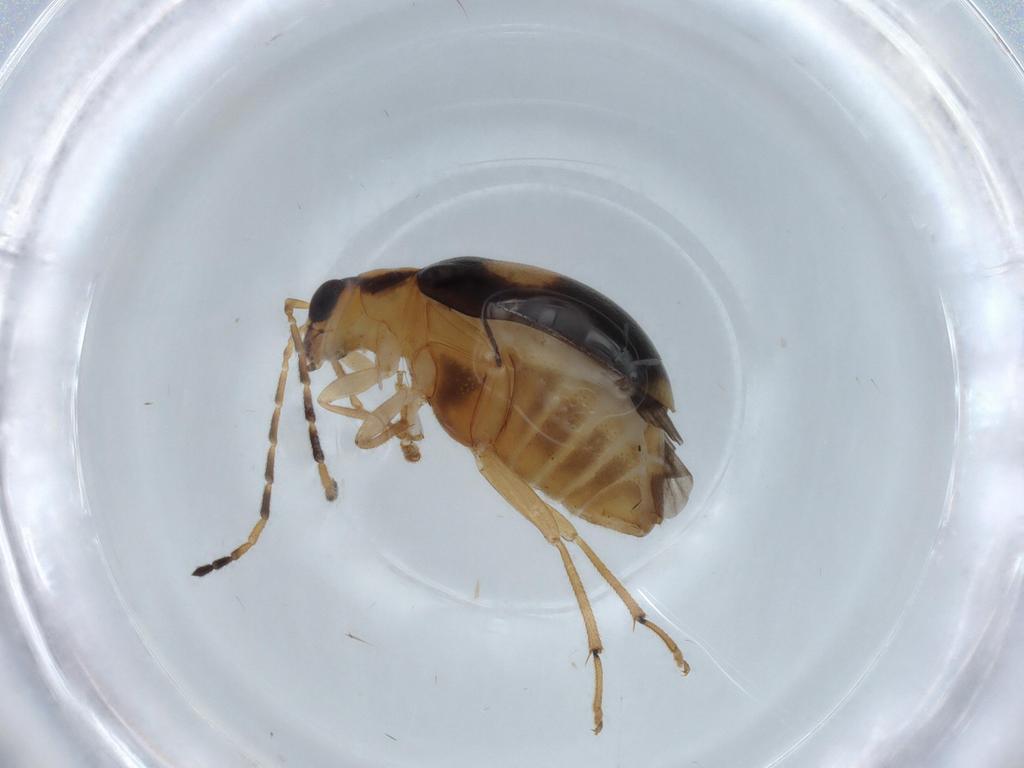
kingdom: Animalia
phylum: Arthropoda
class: Insecta
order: Coleoptera
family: Chrysomelidae
